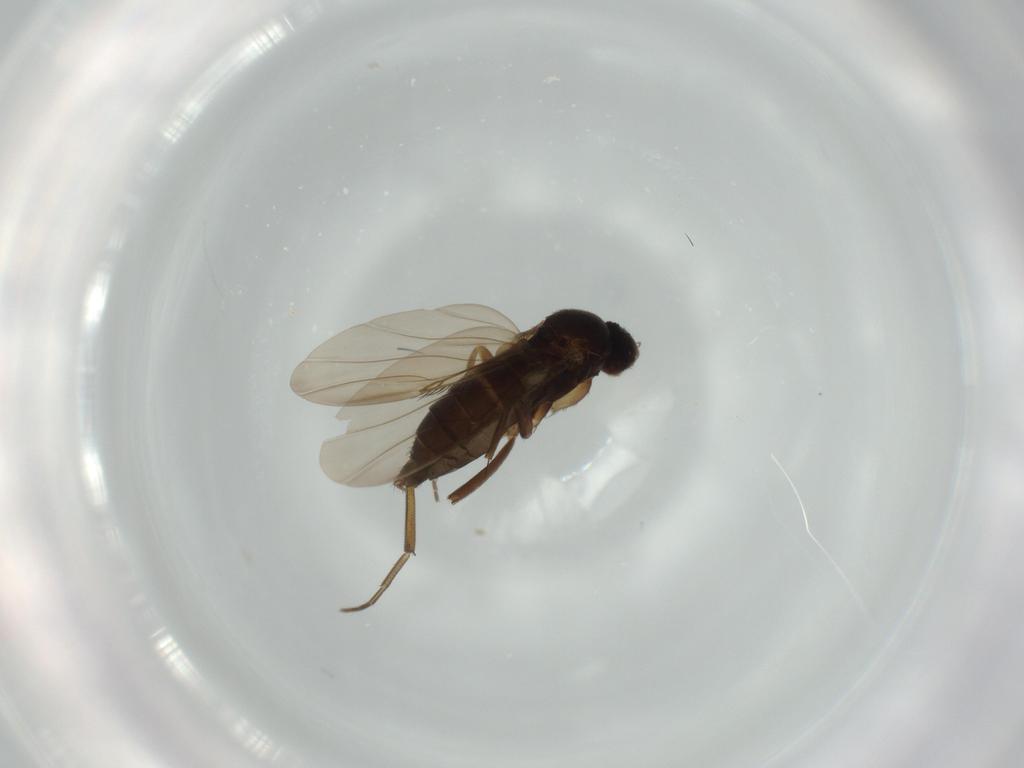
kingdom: Animalia
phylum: Arthropoda
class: Insecta
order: Diptera
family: Phoridae
